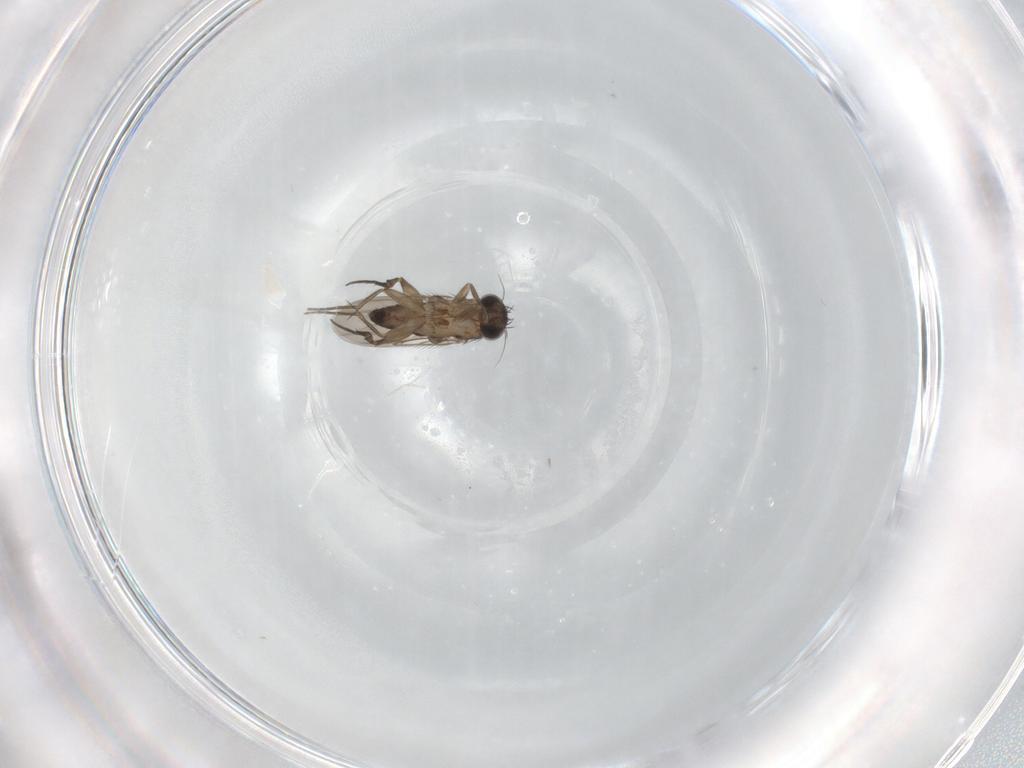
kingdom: Animalia
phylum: Arthropoda
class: Insecta
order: Diptera
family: Phoridae
